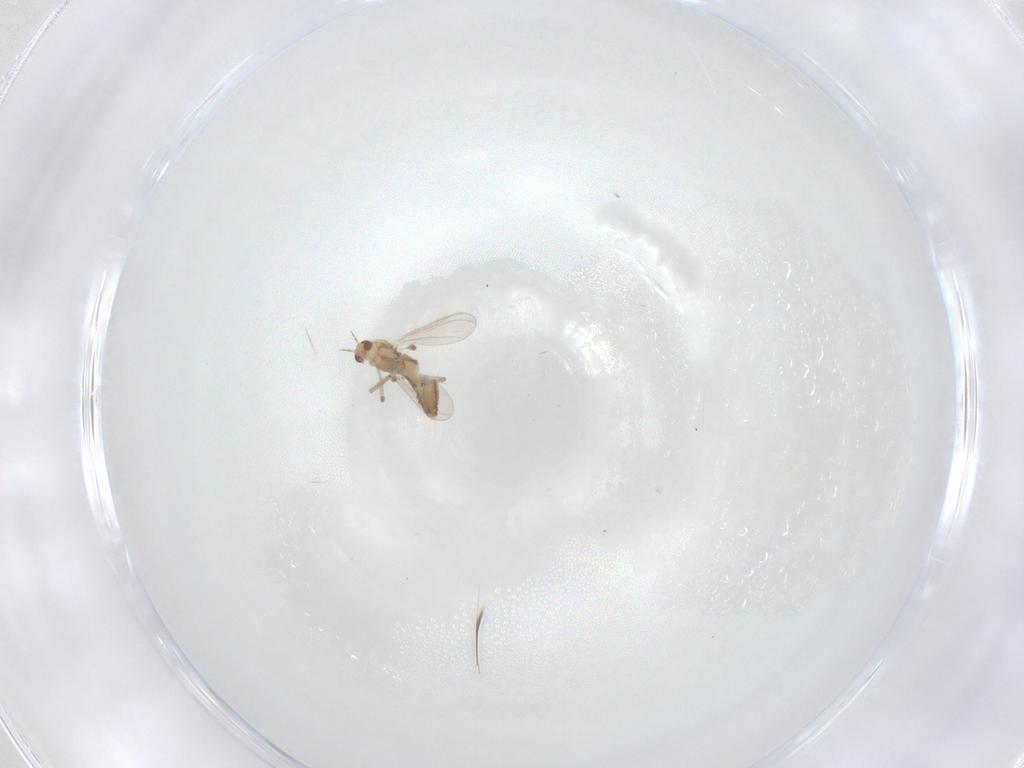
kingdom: Animalia
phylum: Arthropoda
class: Insecta
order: Diptera
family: Chironomidae
